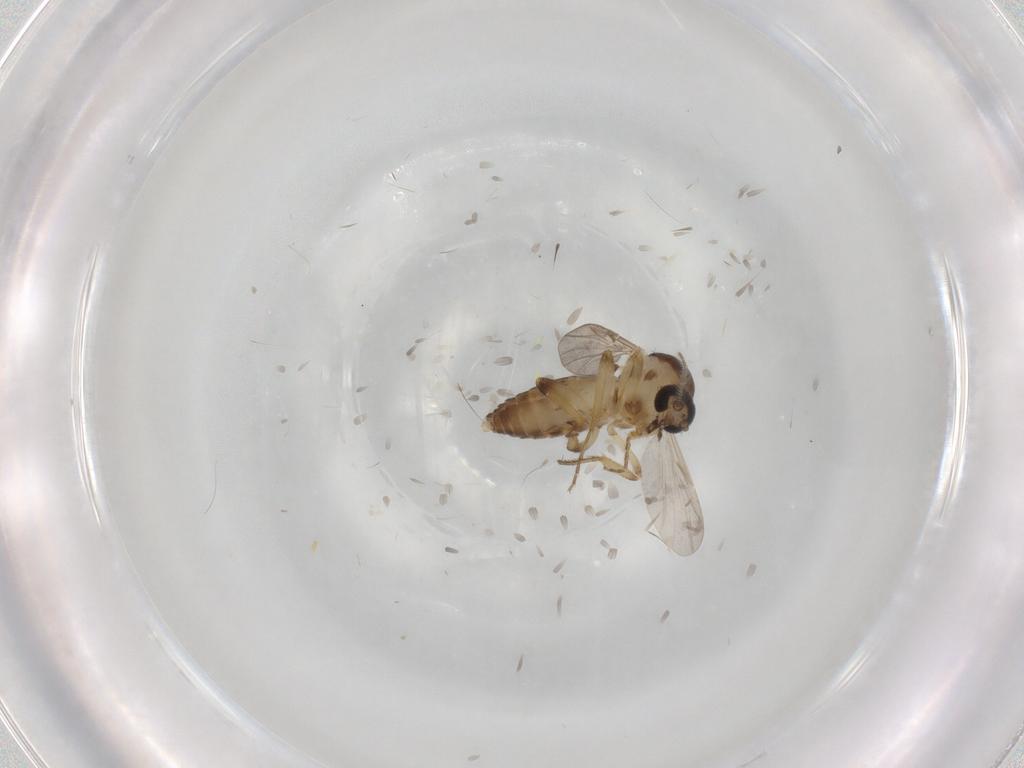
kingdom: Animalia
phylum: Arthropoda
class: Insecta
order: Diptera
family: Ceratopogonidae
